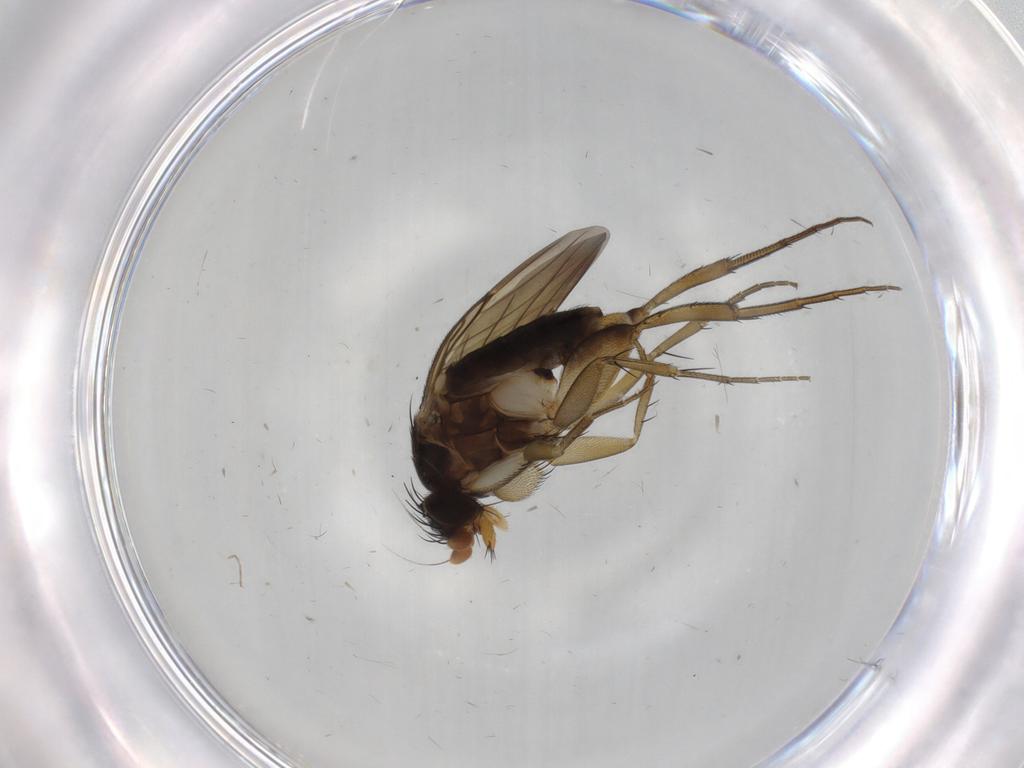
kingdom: Animalia
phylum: Arthropoda
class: Insecta
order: Diptera
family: Phoridae
